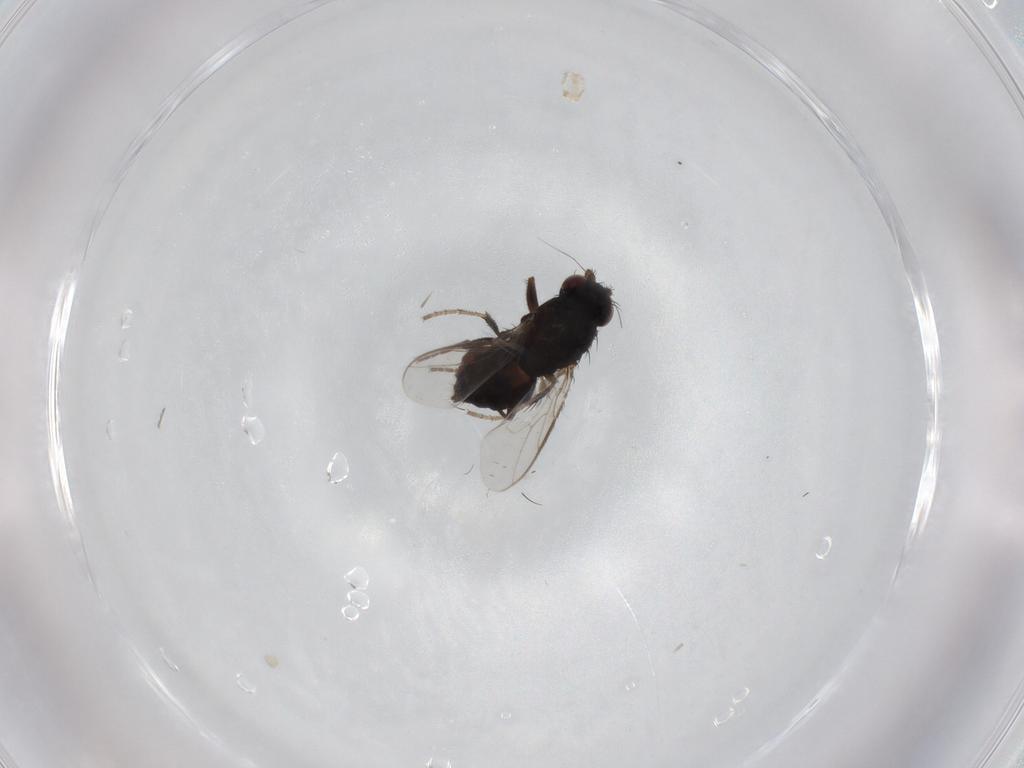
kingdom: Animalia
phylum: Arthropoda
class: Insecta
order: Diptera
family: Sphaeroceridae
